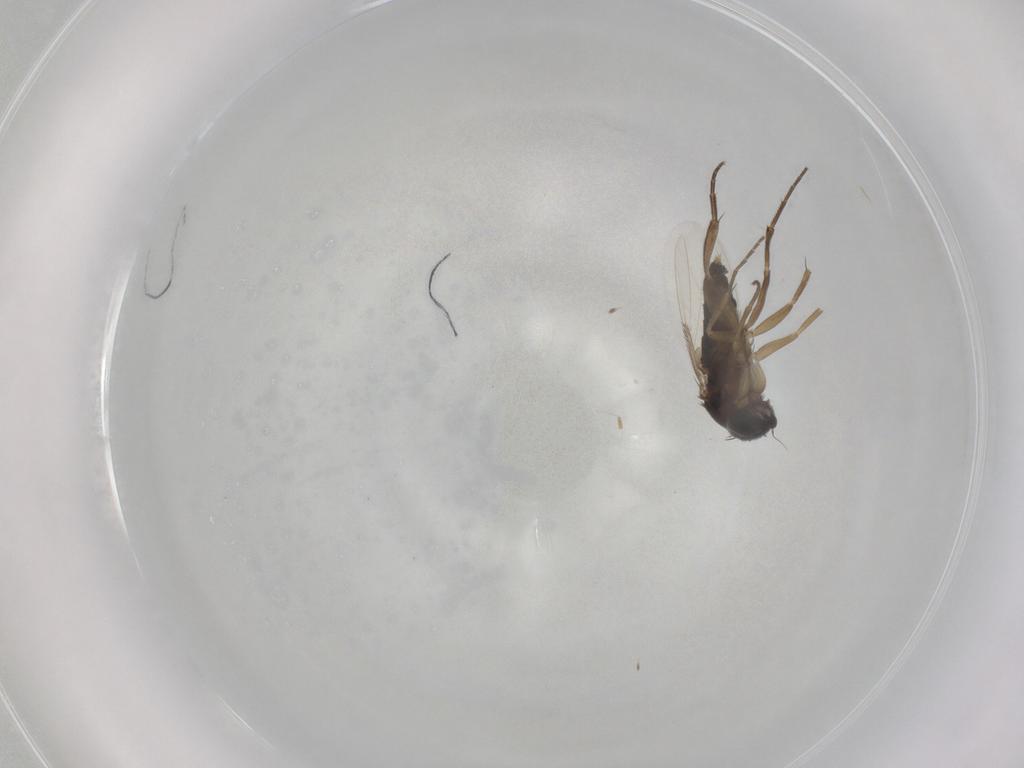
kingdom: Animalia
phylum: Arthropoda
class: Insecta
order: Diptera
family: Phoridae
